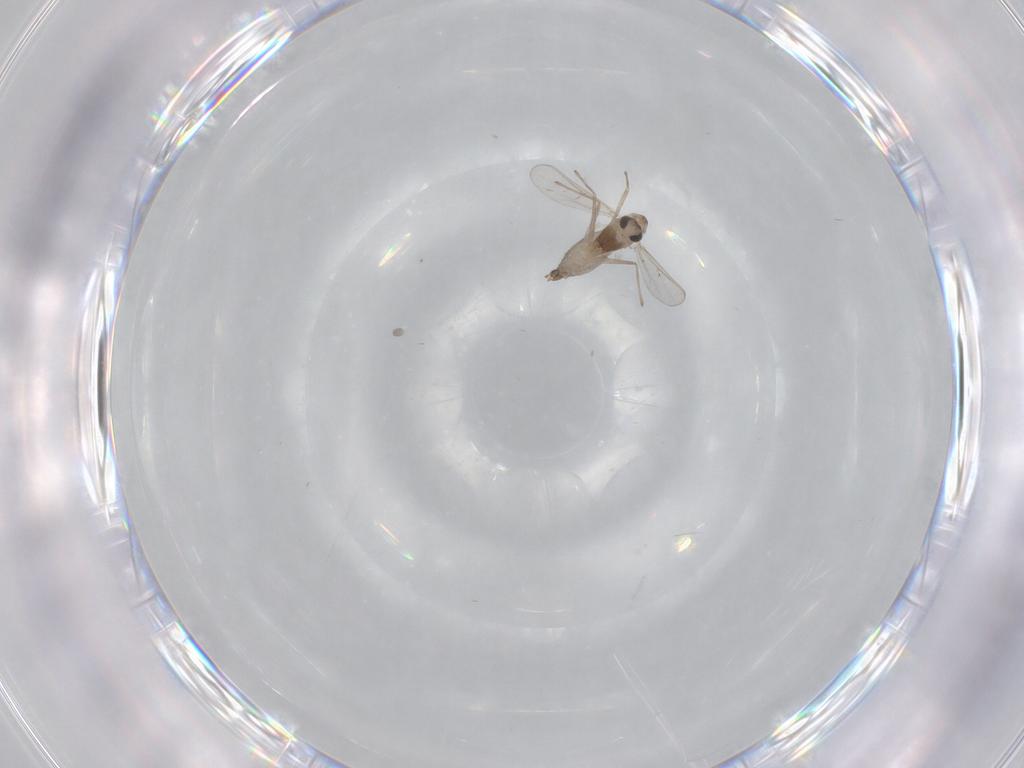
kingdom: Animalia
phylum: Arthropoda
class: Insecta
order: Diptera
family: Chironomidae
